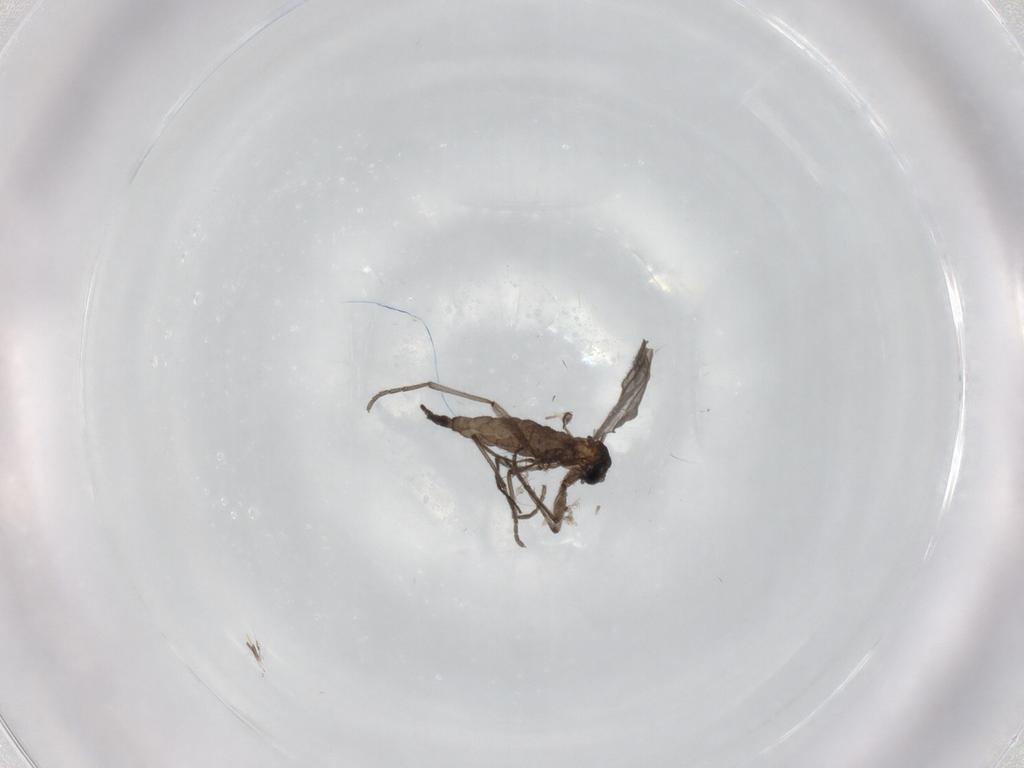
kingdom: Animalia
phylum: Arthropoda
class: Insecta
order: Diptera
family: Sciaridae
